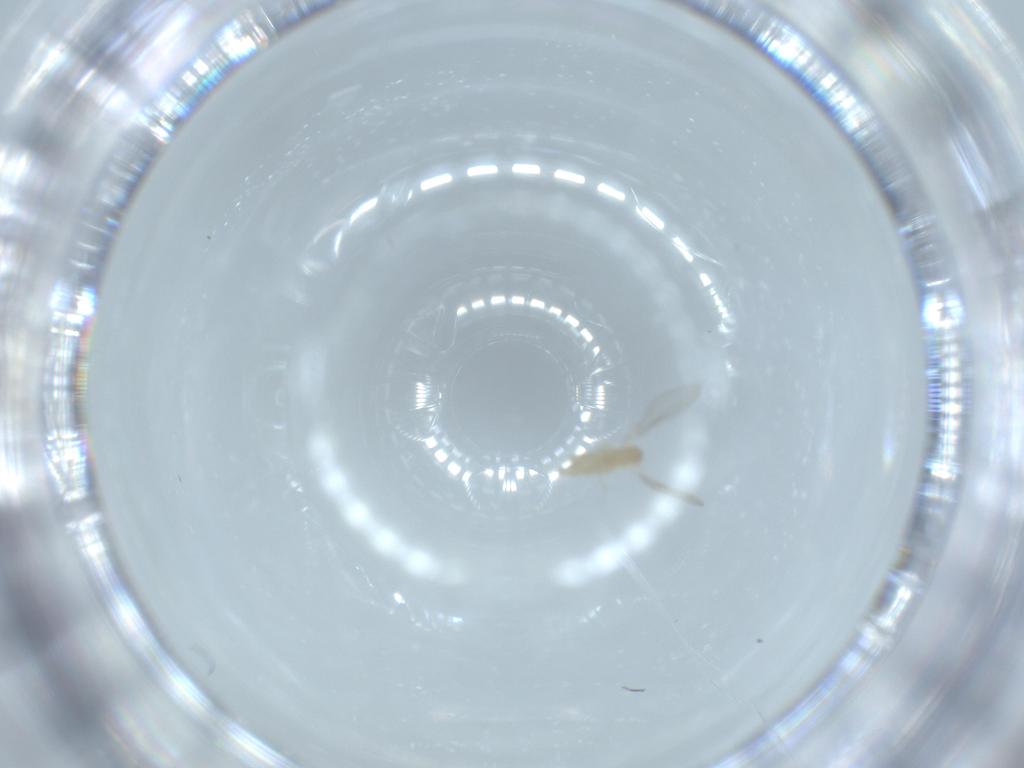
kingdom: Animalia
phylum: Arthropoda
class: Insecta
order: Diptera
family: Cecidomyiidae
